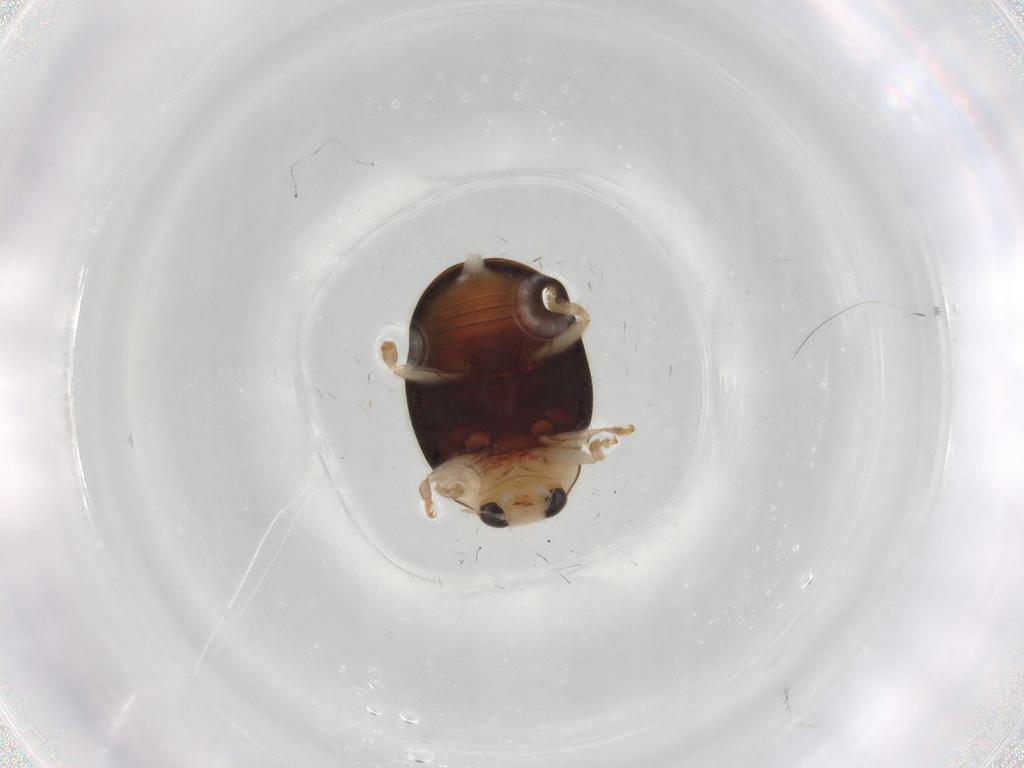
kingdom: Animalia
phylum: Arthropoda
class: Insecta
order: Coleoptera
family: Coccinellidae
